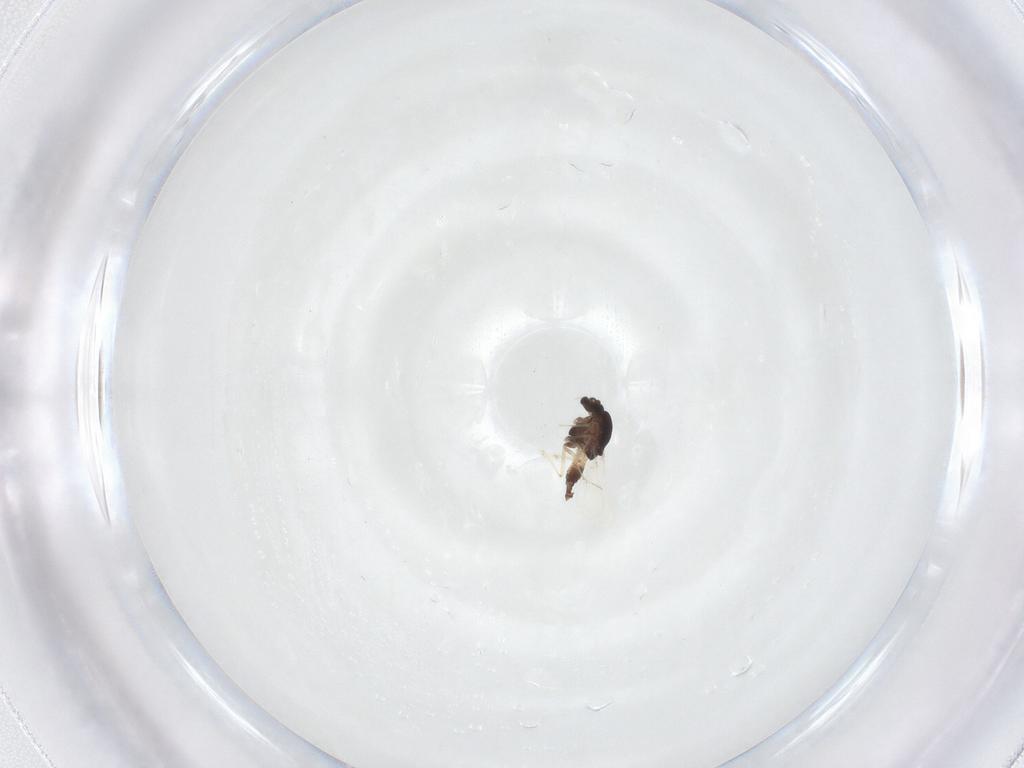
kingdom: Animalia
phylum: Arthropoda
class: Insecta
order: Diptera
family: Chironomidae
